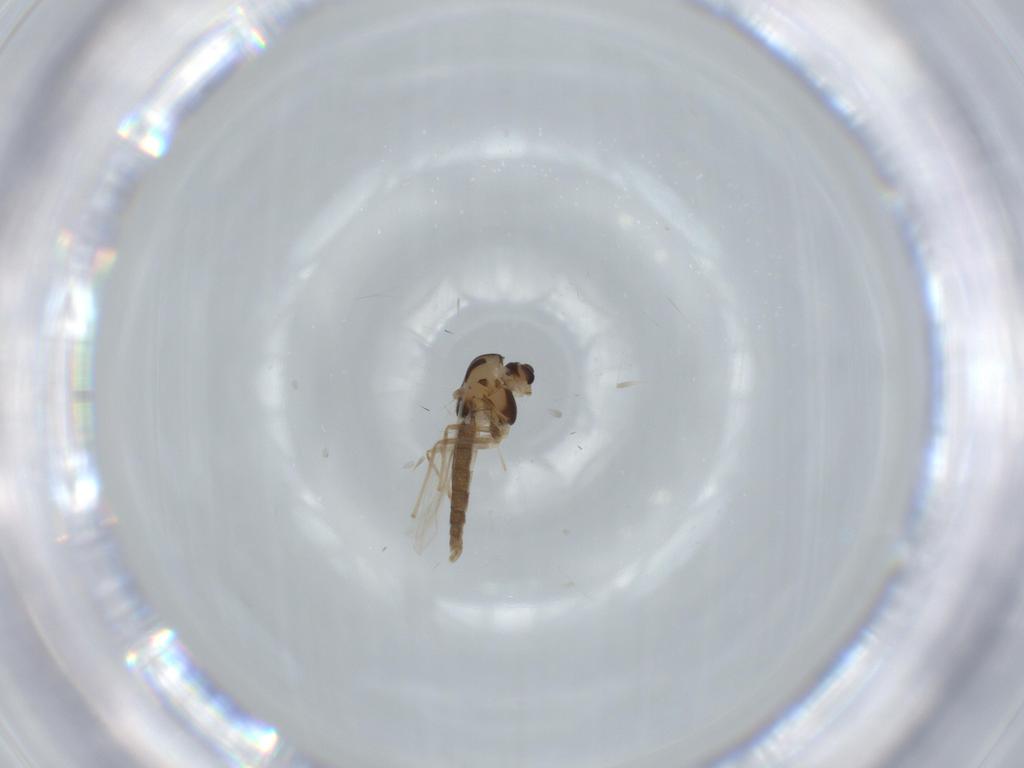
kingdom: Animalia
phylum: Arthropoda
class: Insecta
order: Diptera
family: Chironomidae
